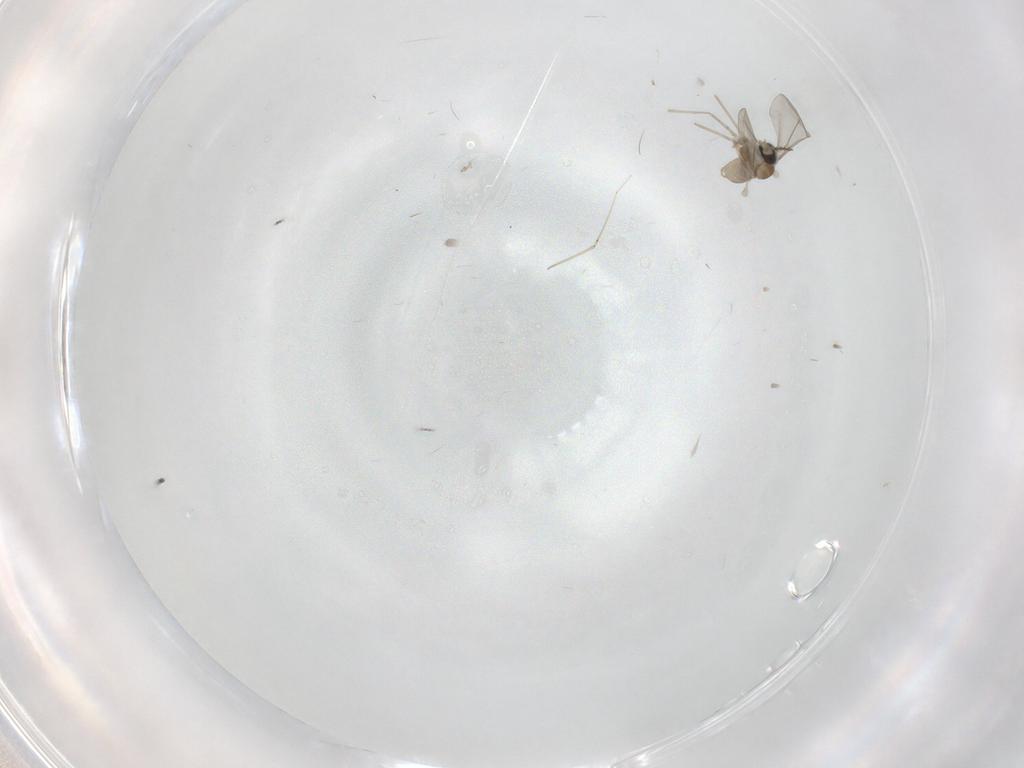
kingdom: Animalia
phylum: Arthropoda
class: Insecta
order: Diptera
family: Cecidomyiidae
